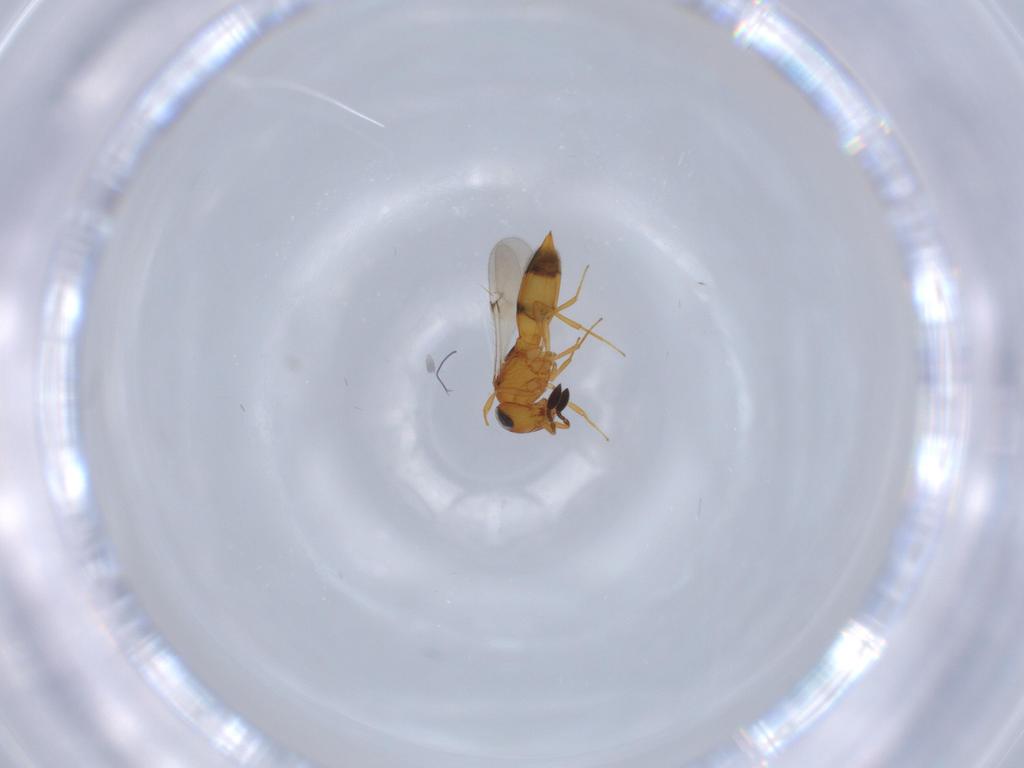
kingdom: Animalia
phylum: Arthropoda
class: Insecta
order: Hymenoptera
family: Scelionidae
